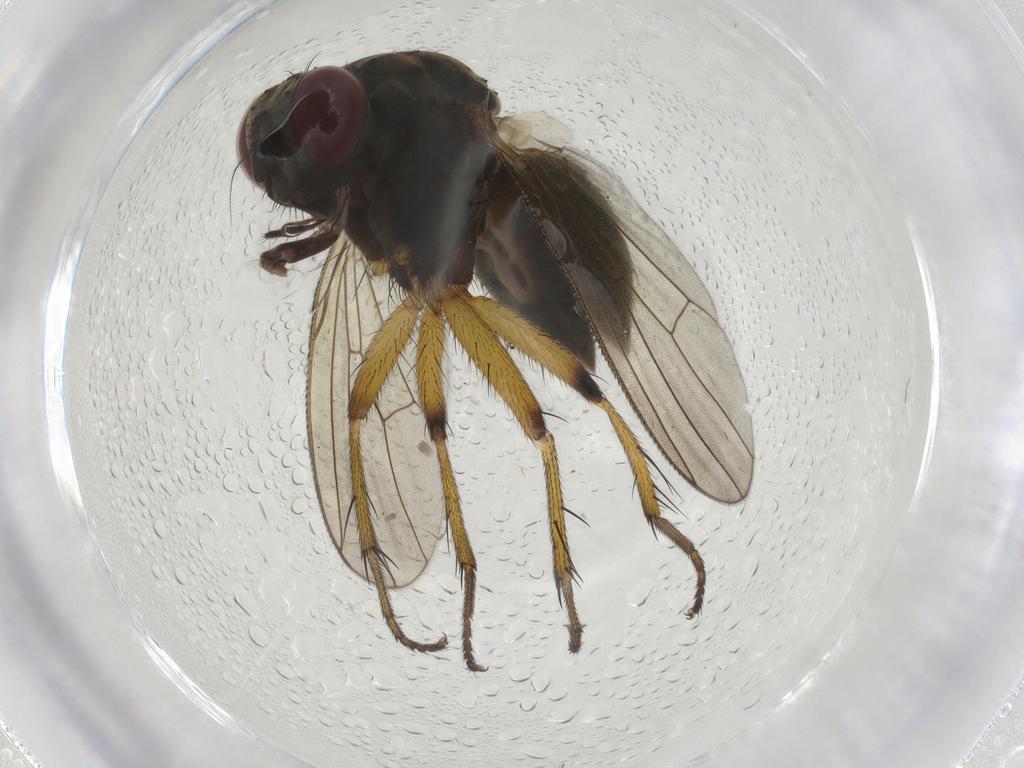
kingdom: Animalia
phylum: Arthropoda
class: Insecta
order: Diptera
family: Muscidae
